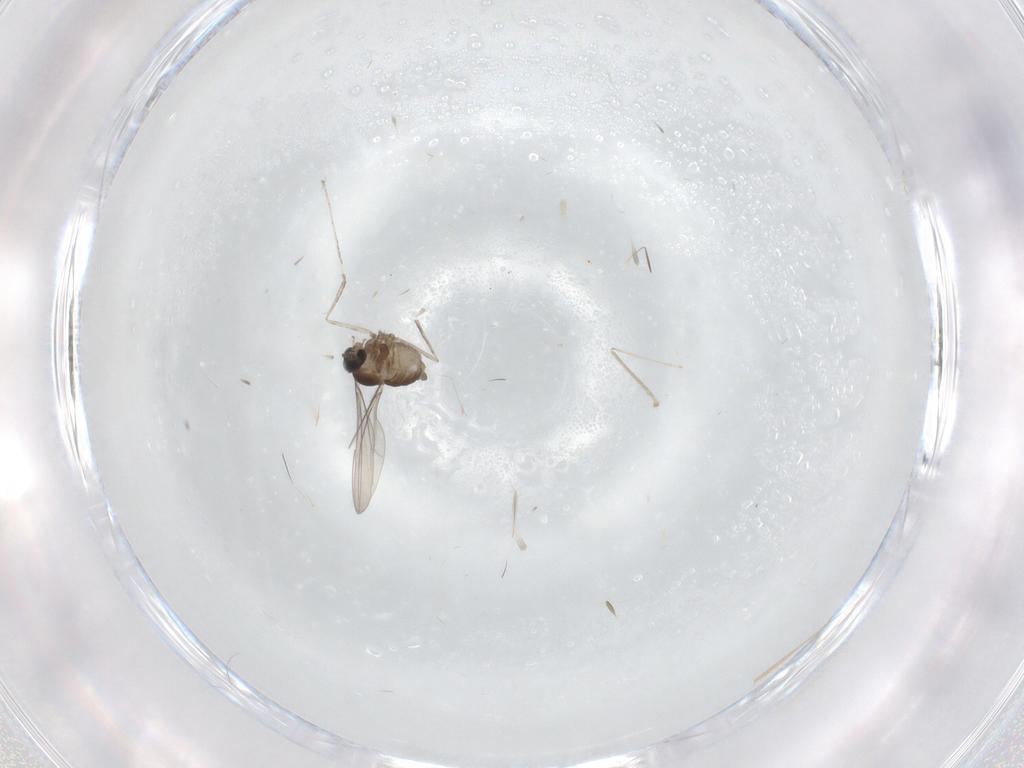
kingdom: Animalia
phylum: Arthropoda
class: Insecta
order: Diptera
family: Cecidomyiidae
